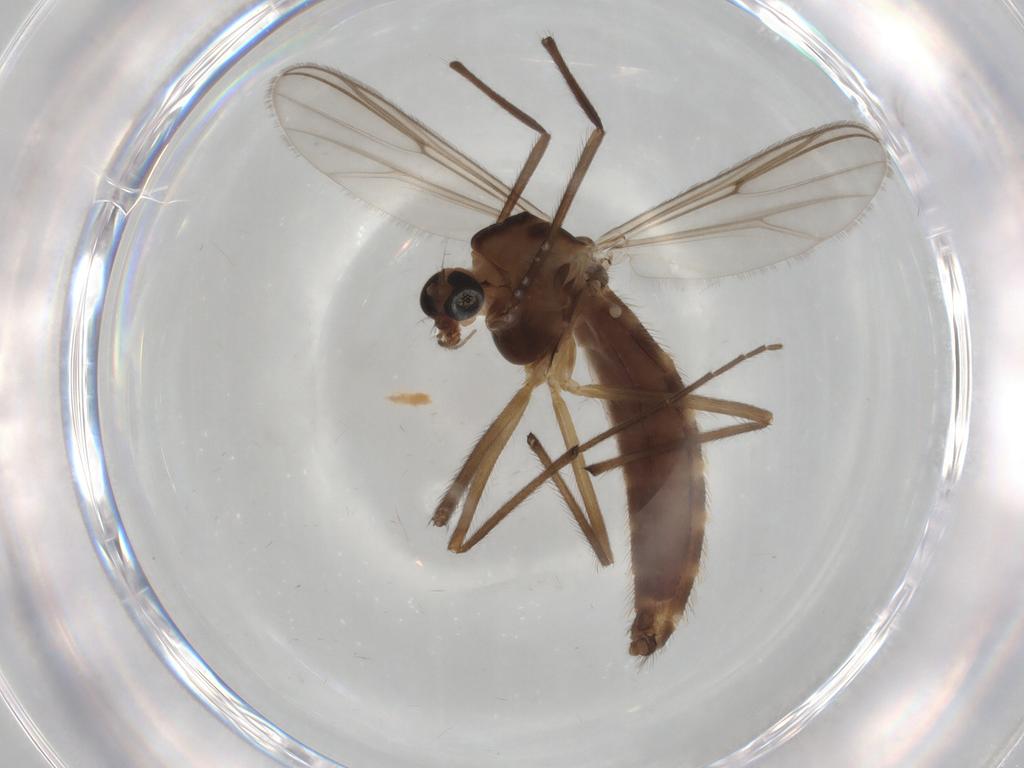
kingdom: Animalia
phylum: Arthropoda
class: Insecta
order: Diptera
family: Chironomidae
